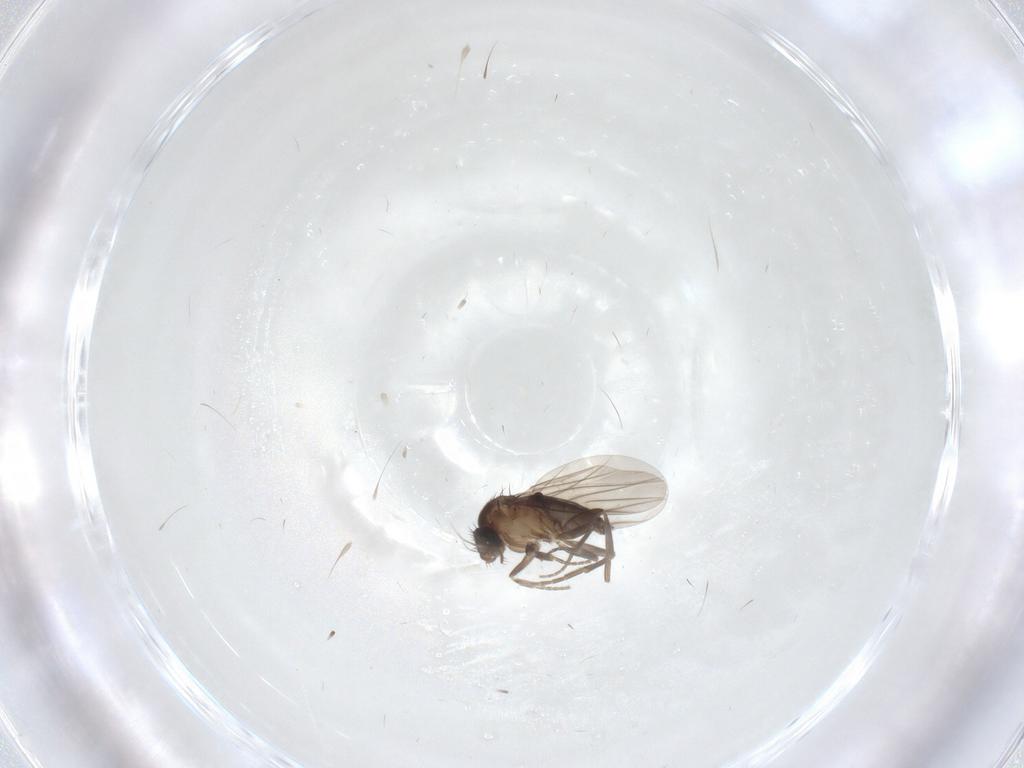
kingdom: Animalia
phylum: Arthropoda
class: Insecta
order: Diptera
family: Phoridae
